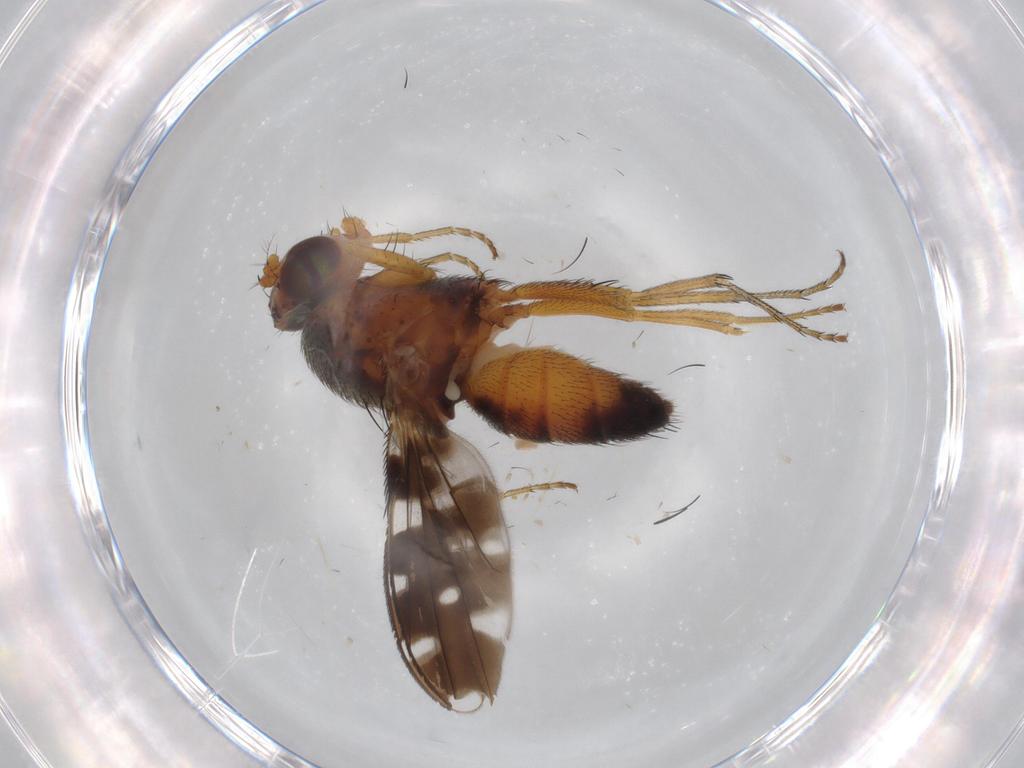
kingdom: Animalia
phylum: Arthropoda
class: Insecta
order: Diptera
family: Ephydridae
